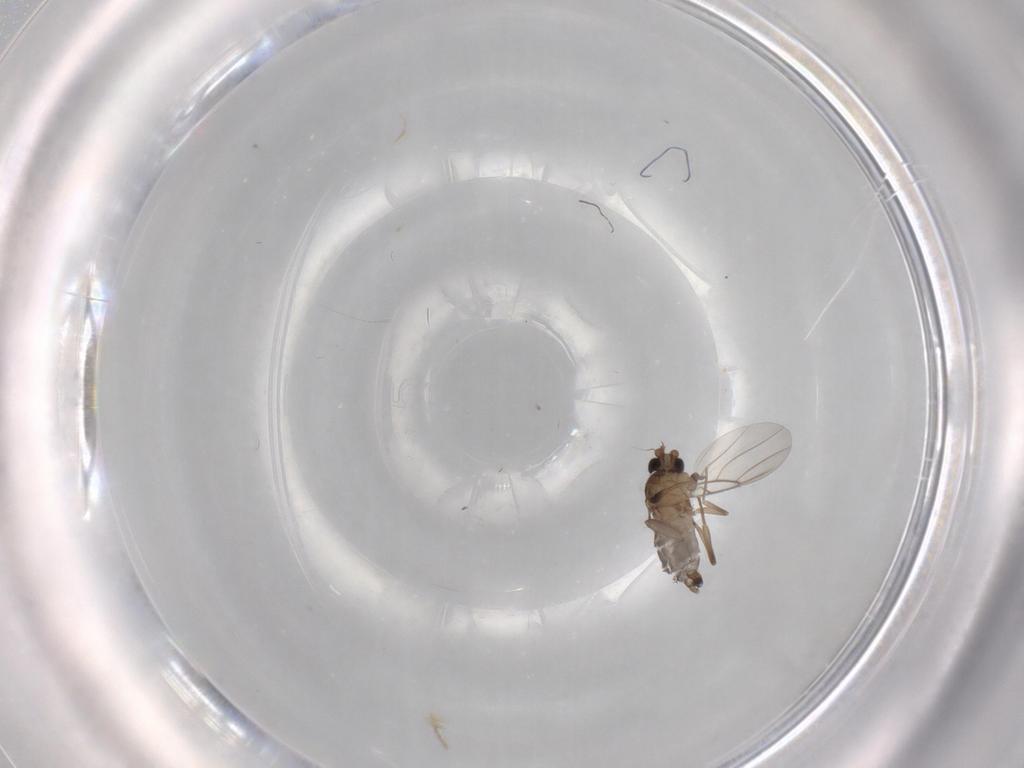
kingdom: Animalia
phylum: Arthropoda
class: Insecta
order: Diptera
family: Phoridae
